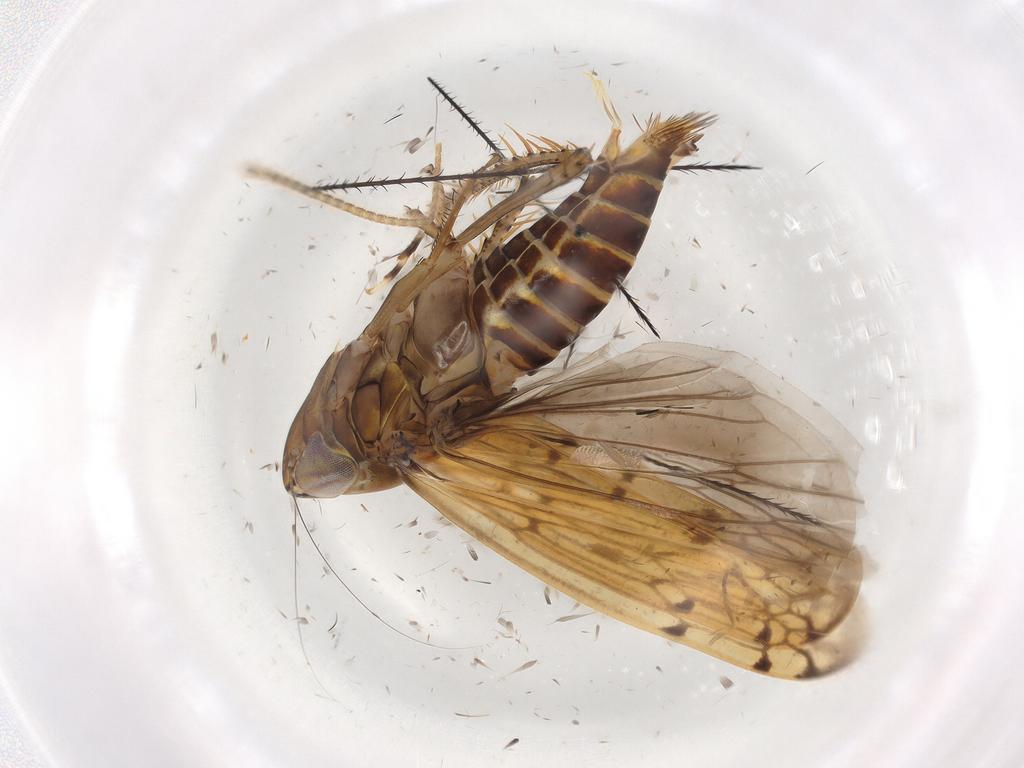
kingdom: Animalia
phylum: Arthropoda
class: Insecta
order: Hemiptera
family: Cicadellidae
